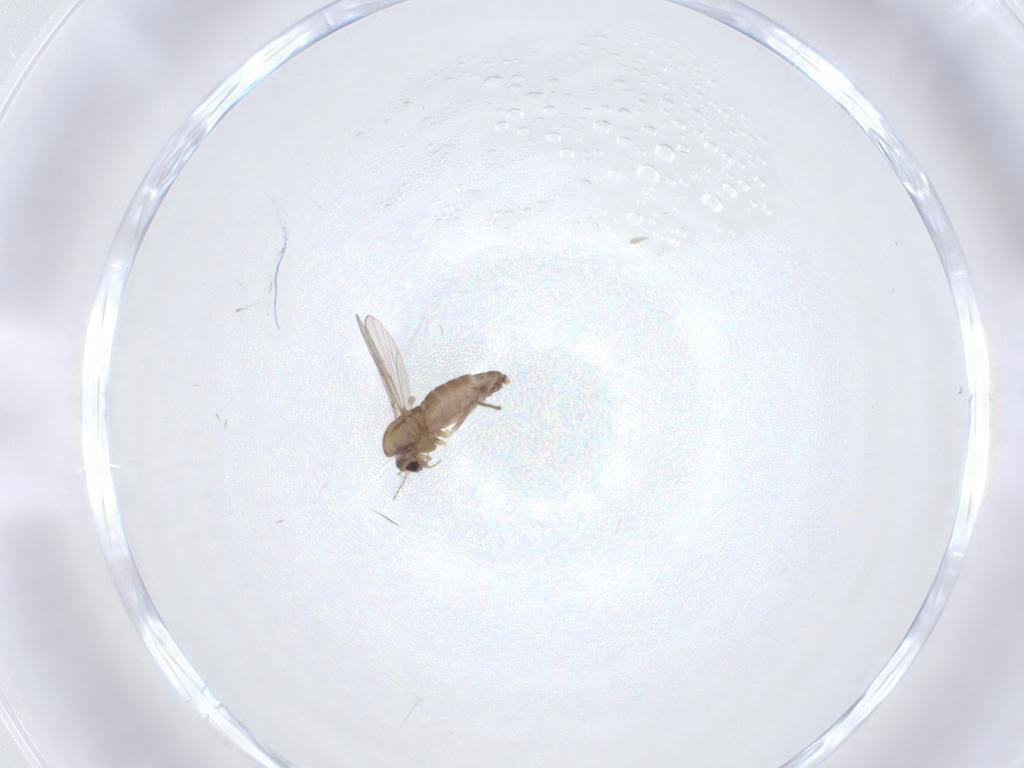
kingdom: Animalia
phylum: Arthropoda
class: Insecta
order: Diptera
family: Chironomidae
